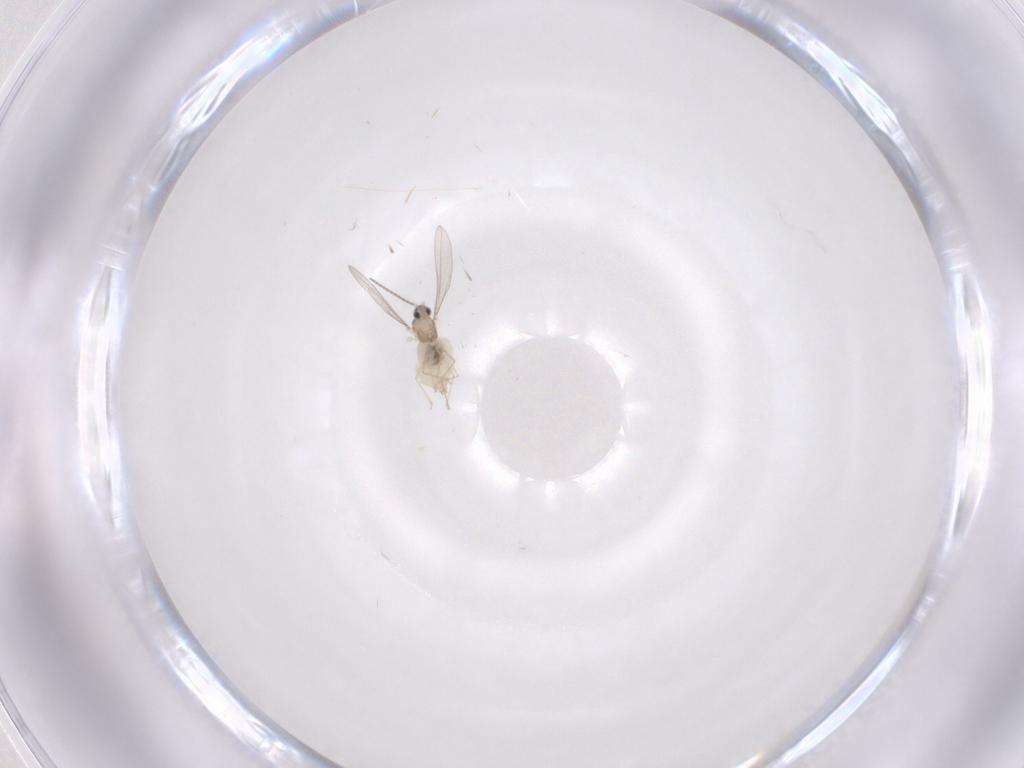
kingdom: Animalia
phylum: Arthropoda
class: Insecta
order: Diptera
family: Cecidomyiidae
